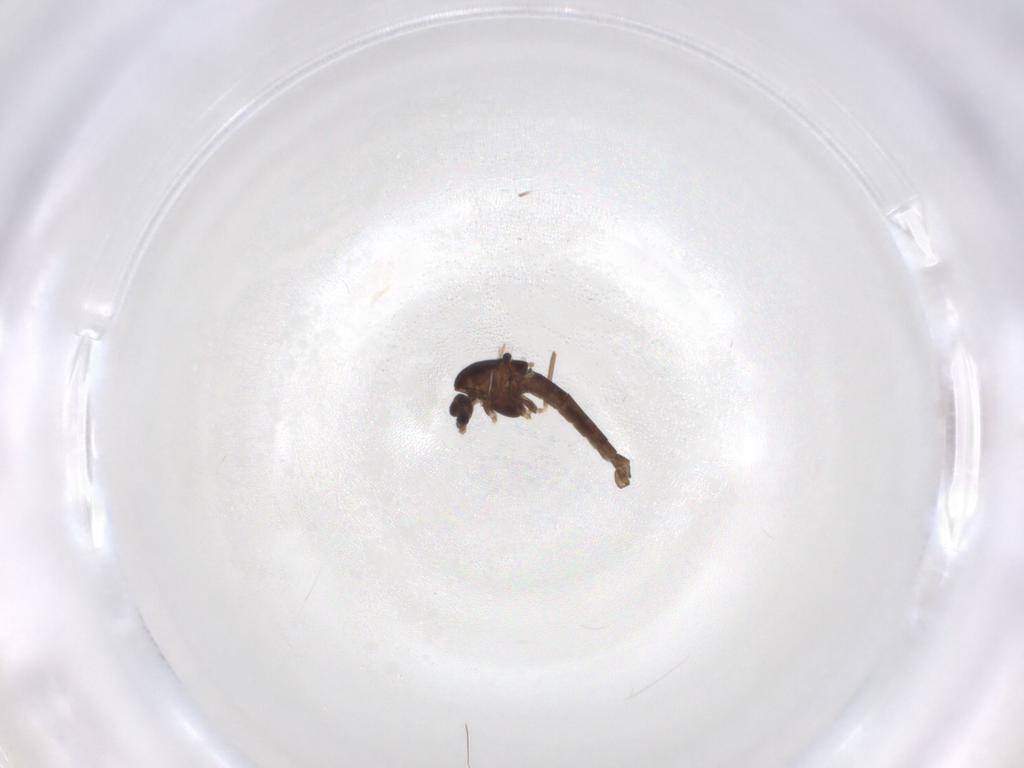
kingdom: Animalia
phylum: Arthropoda
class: Insecta
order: Diptera
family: Chironomidae
